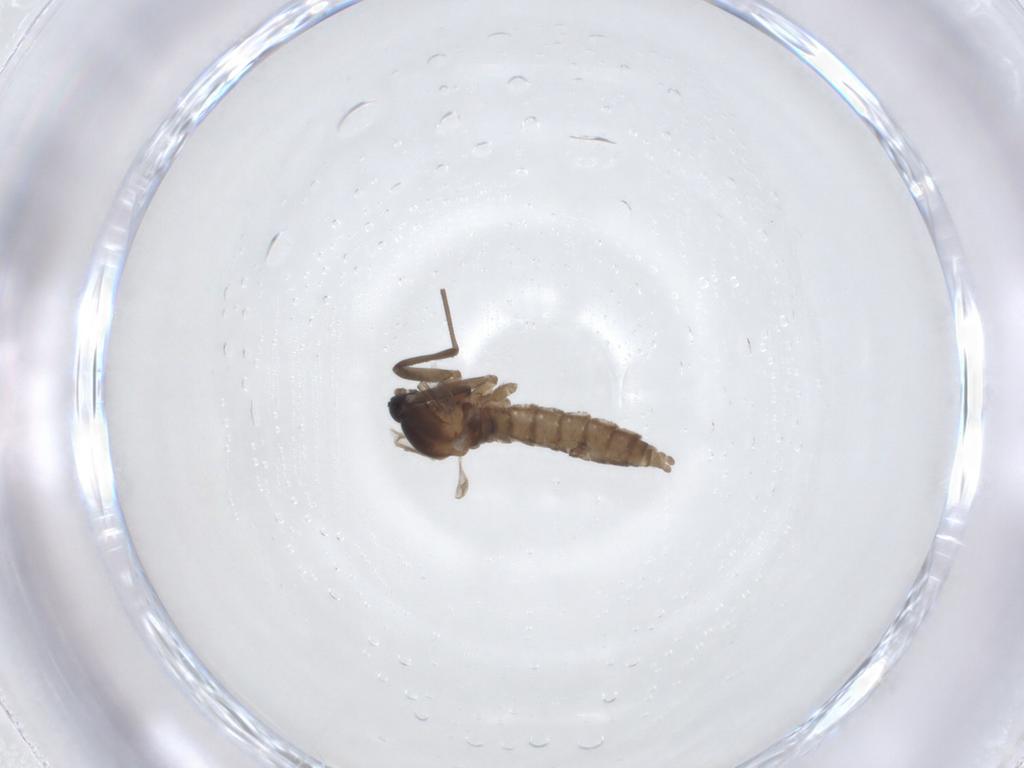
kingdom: Animalia
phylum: Arthropoda
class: Insecta
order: Diptera
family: Cecidomyiidae
